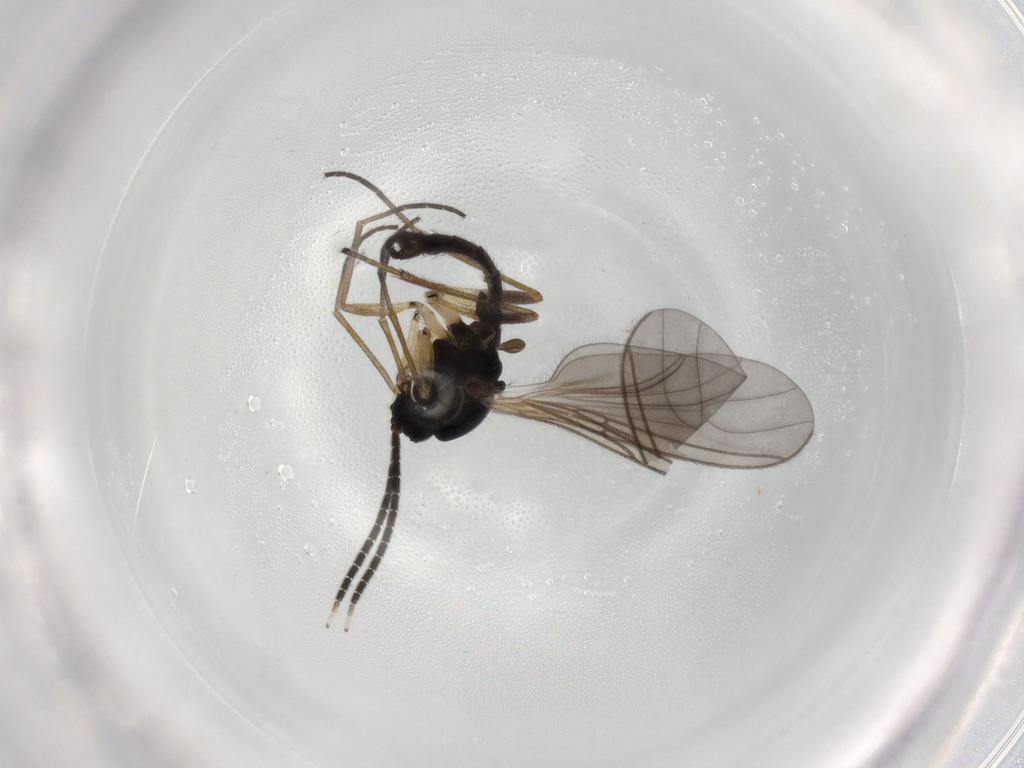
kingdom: Animalia
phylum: Arthropoda
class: Insecta
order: Diptera
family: Sciaridae
